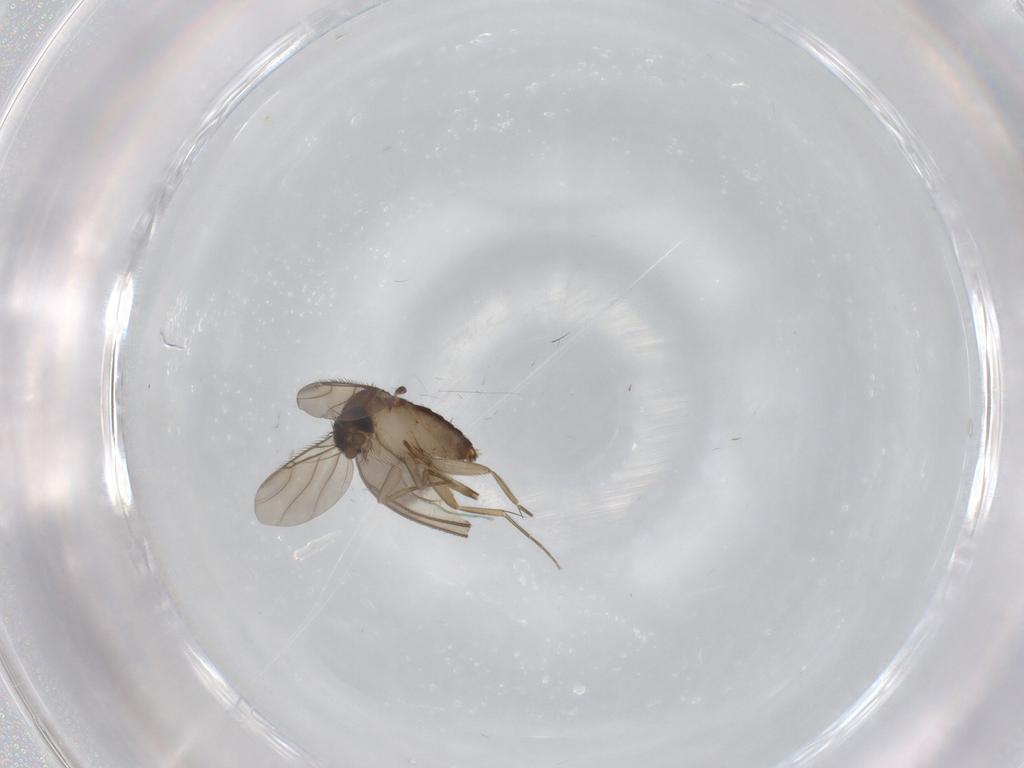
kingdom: Animalia
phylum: Arthropoda
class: Insecta
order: Diptera
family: Phoridae
